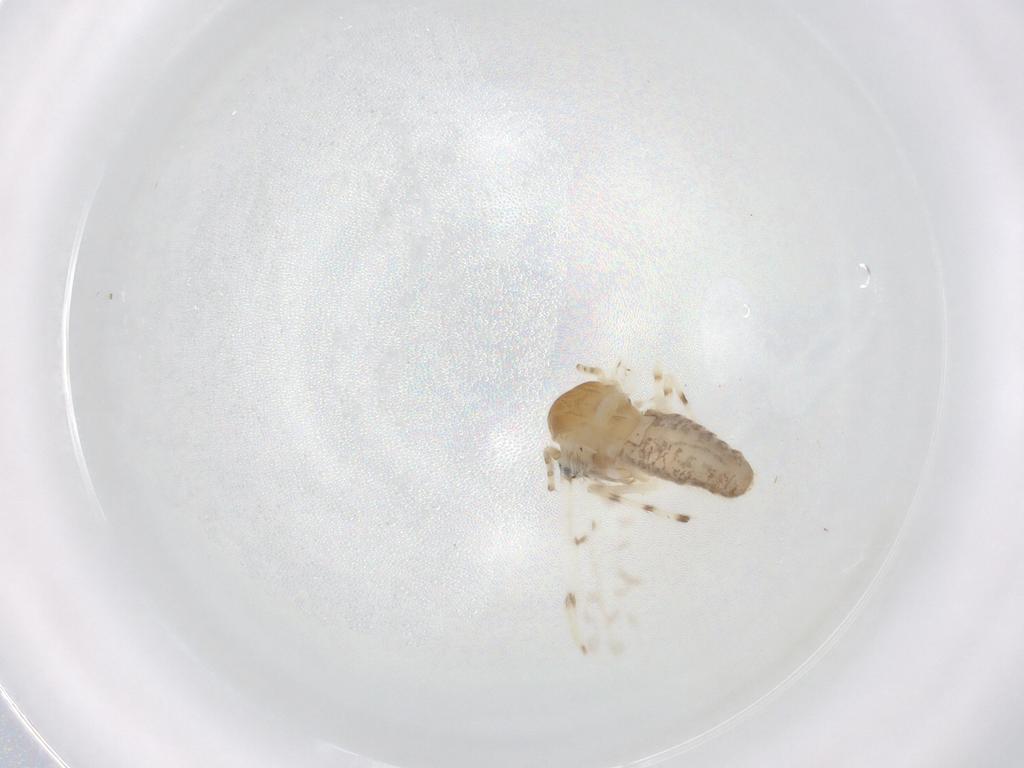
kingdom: Animalia
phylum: Arthropoda
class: Insecta
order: Diptera
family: Chironomidae
